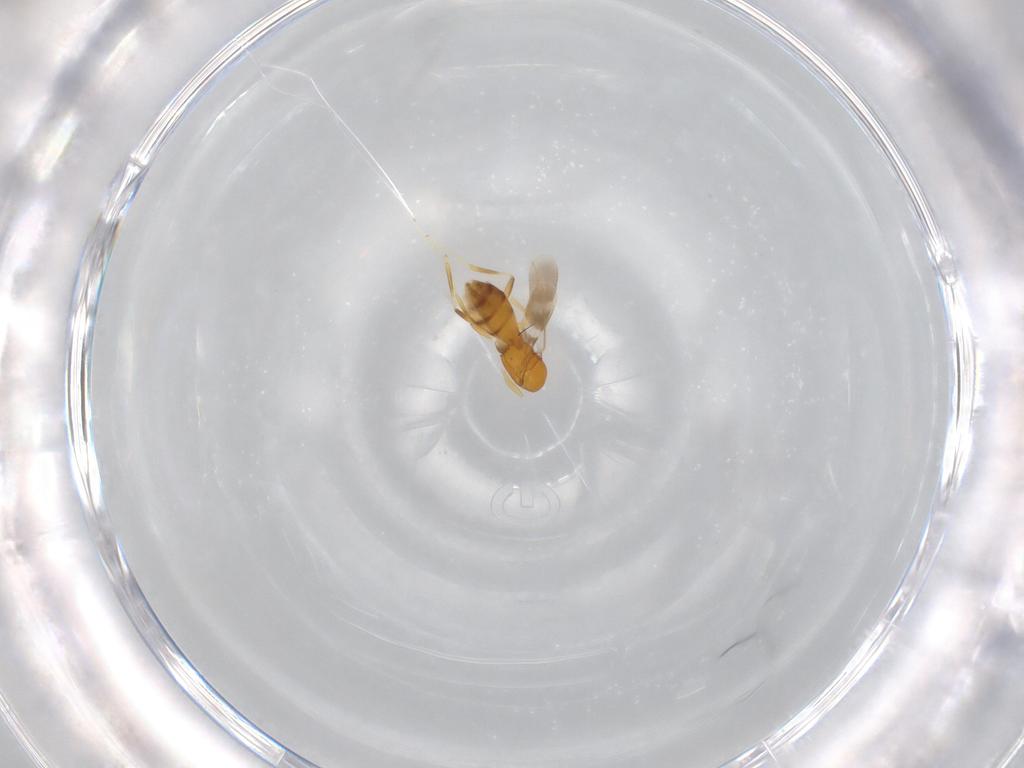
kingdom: Animalia
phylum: Arthropoda
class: Insecta
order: Hymenoptera
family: Scelionidae
